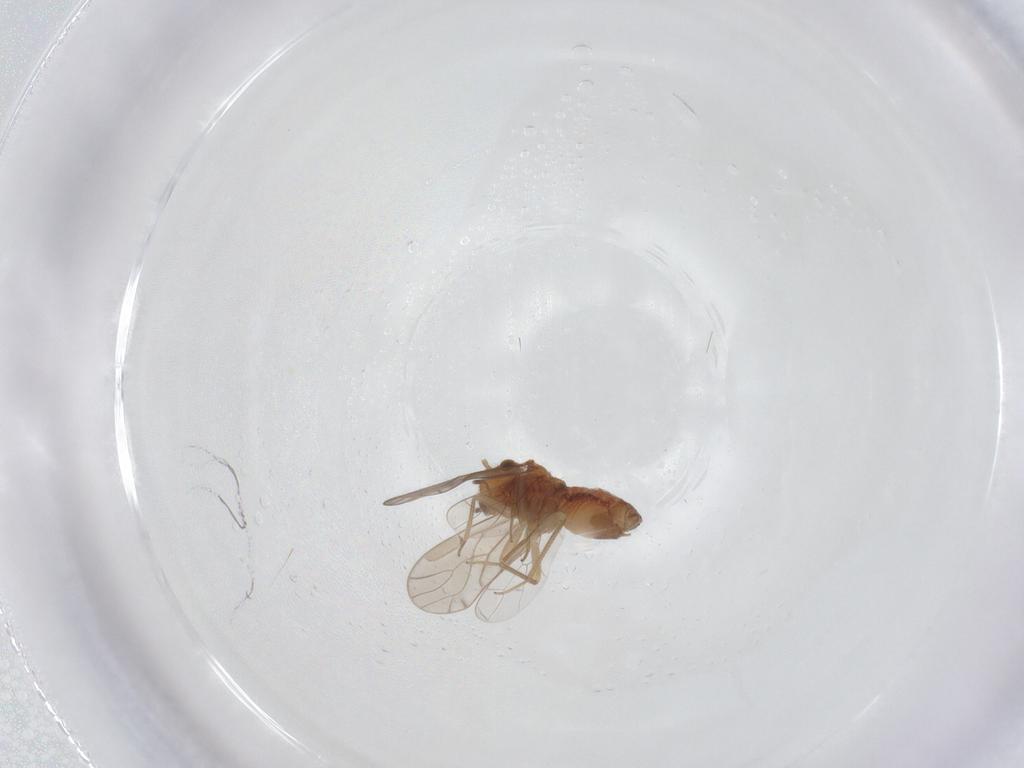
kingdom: Animalia
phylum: Arthropoda
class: Insecta
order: Psocodea
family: Ectopsocidae
